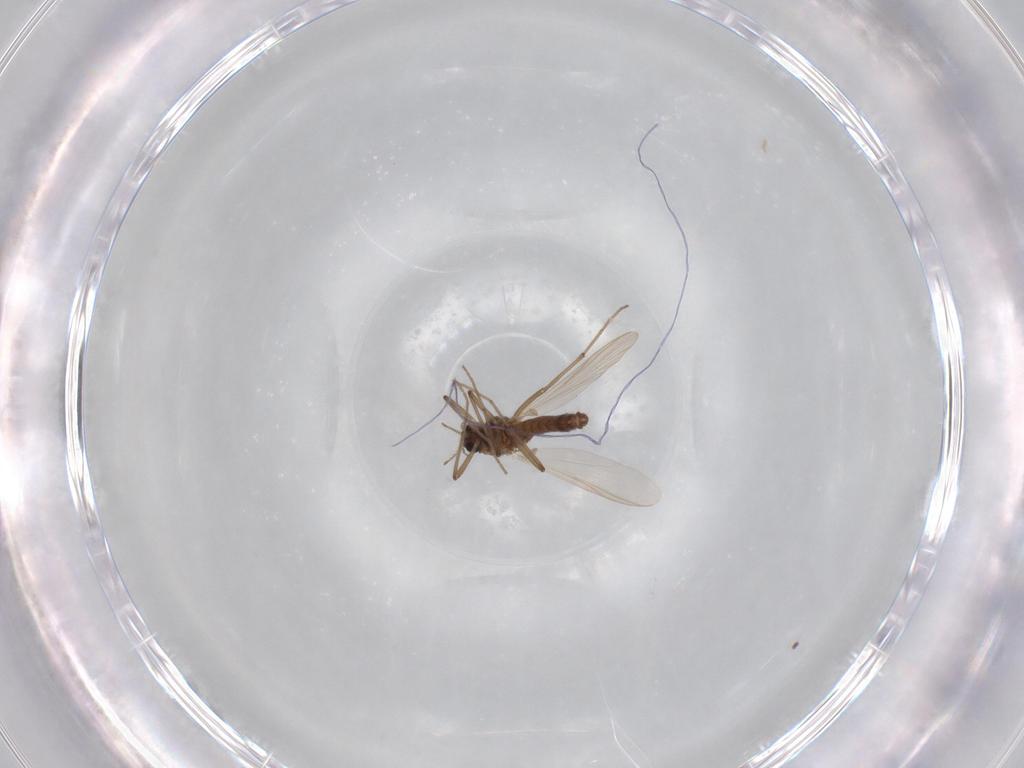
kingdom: Animalia
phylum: Arthropoda
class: Insecta
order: Diptera
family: Chironomidae
